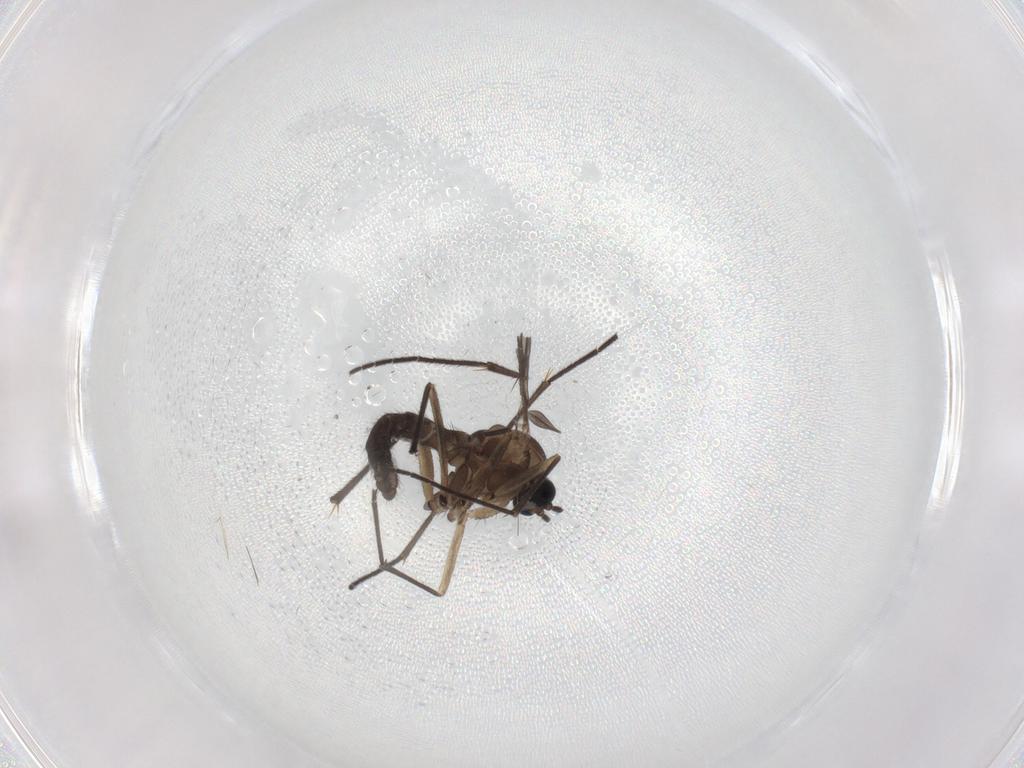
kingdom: Animalia
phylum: Arthropoda
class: Insecta
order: Diptera
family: Sciaridae
